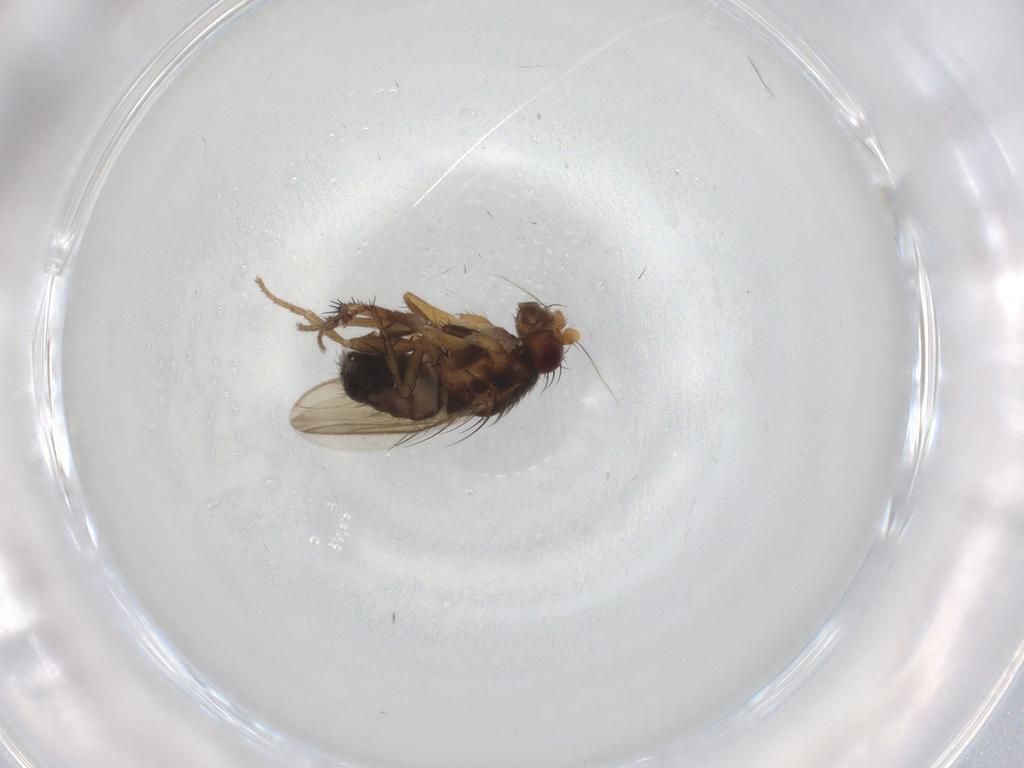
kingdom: Animalia
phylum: Arthropoda
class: Insecta
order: Diptera
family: Sphaeroceridae
